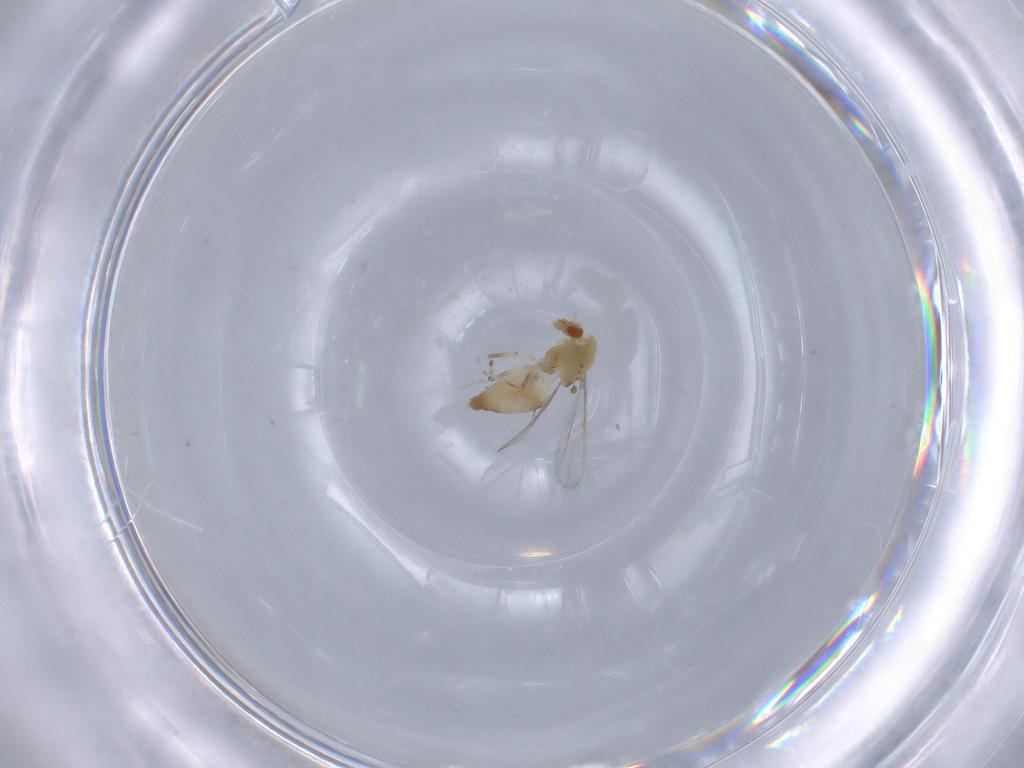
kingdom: Animalia
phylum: Arthropoda
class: Insecta
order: Diptera
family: Chironomidae
